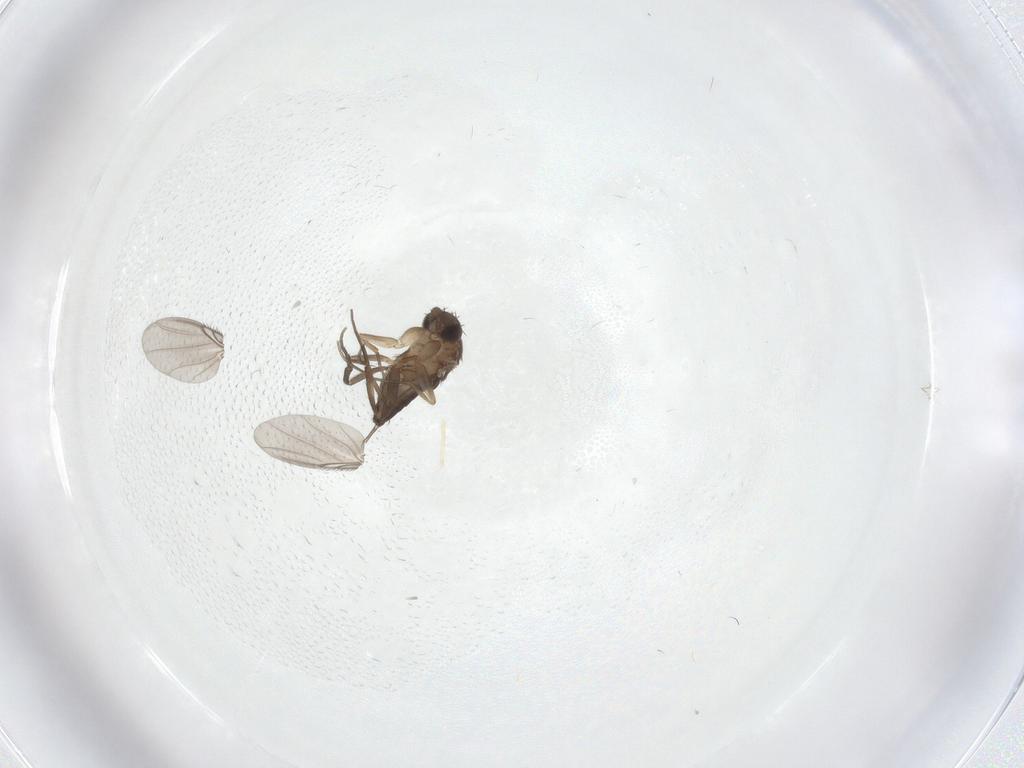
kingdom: Animalia
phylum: Arthropoda
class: Insecta
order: Diptera
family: Phoridae
